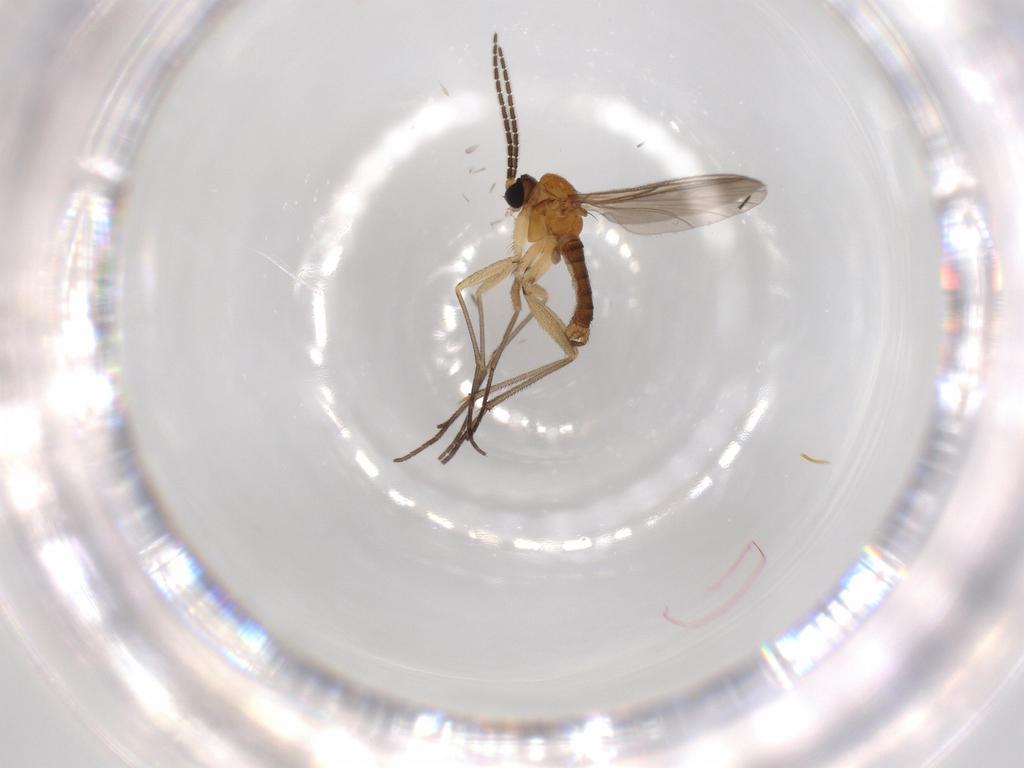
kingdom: Animalia
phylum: Arthropoda
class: Insecta
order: Diptera
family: Sciaridae
